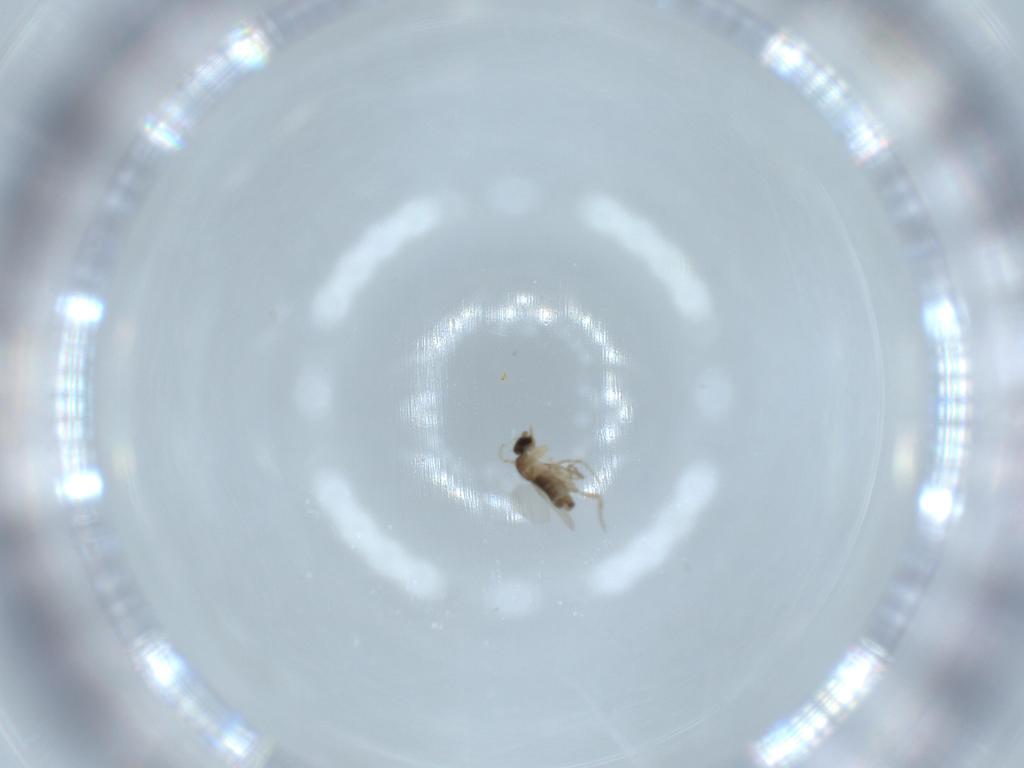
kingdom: Animalia
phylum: Arthropoda
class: Insecta
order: Diptera
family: Phoridae
